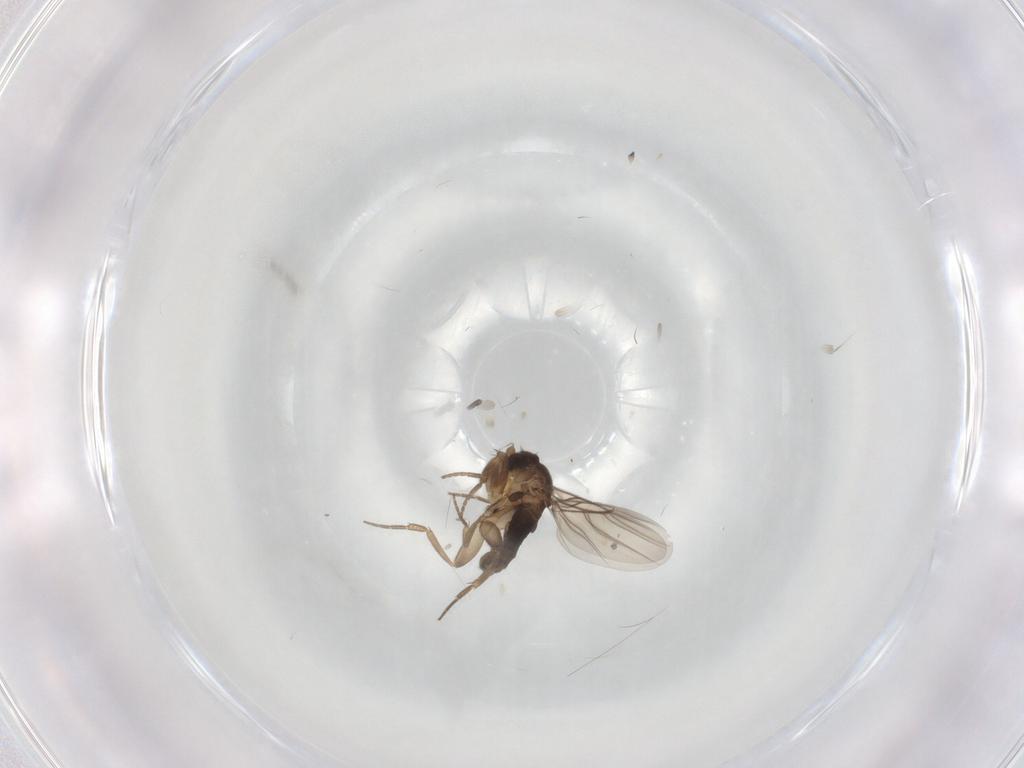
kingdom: Animalia
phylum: Arthropoda
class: Insecta
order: Diptera
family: Phoridae
